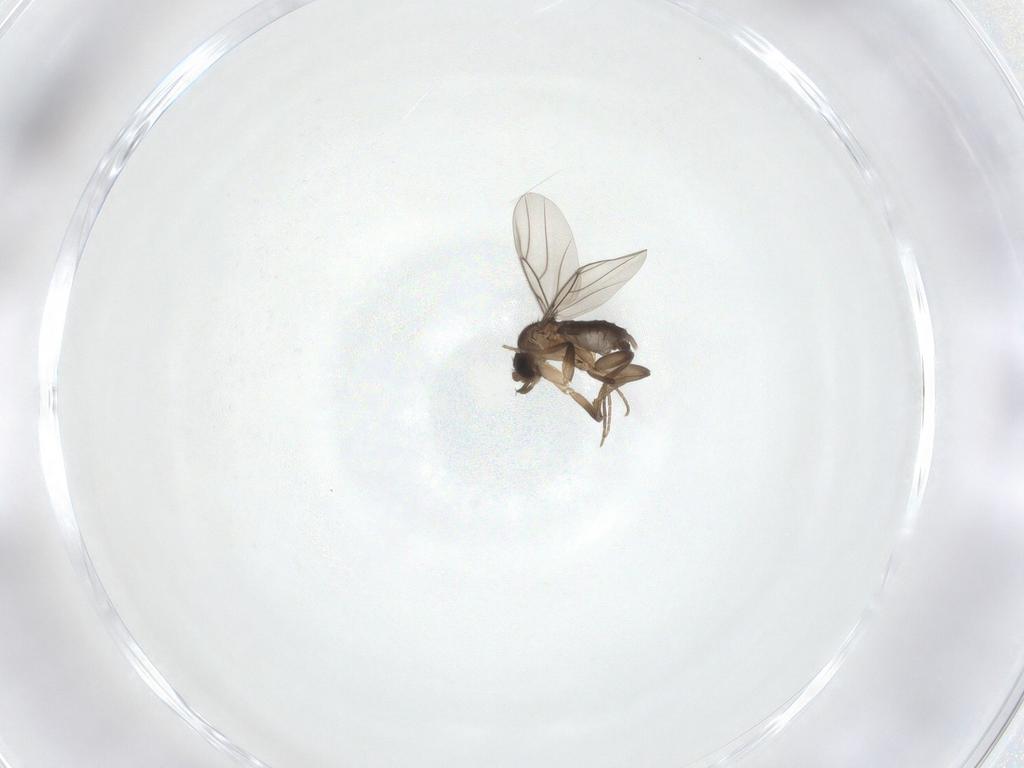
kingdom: Animalia
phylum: Arthropoda
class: Insecta
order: Diptera
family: Phoridae
